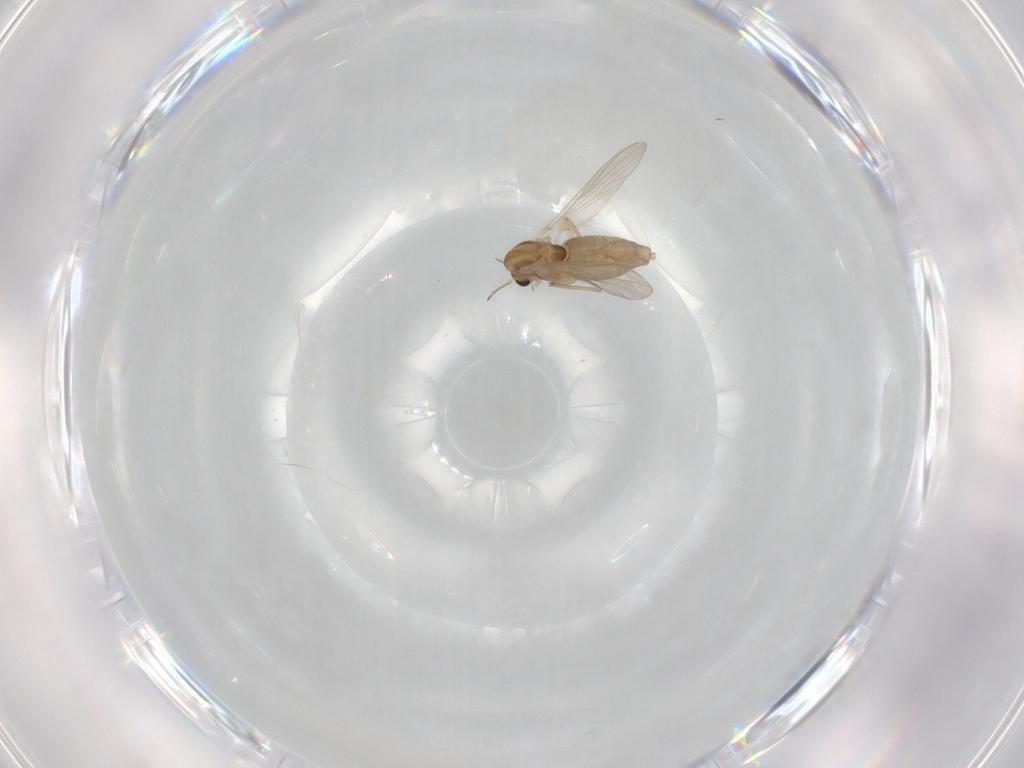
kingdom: Animalia
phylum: Arthropoda
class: Insecta
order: Diptera
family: Chironomidae
